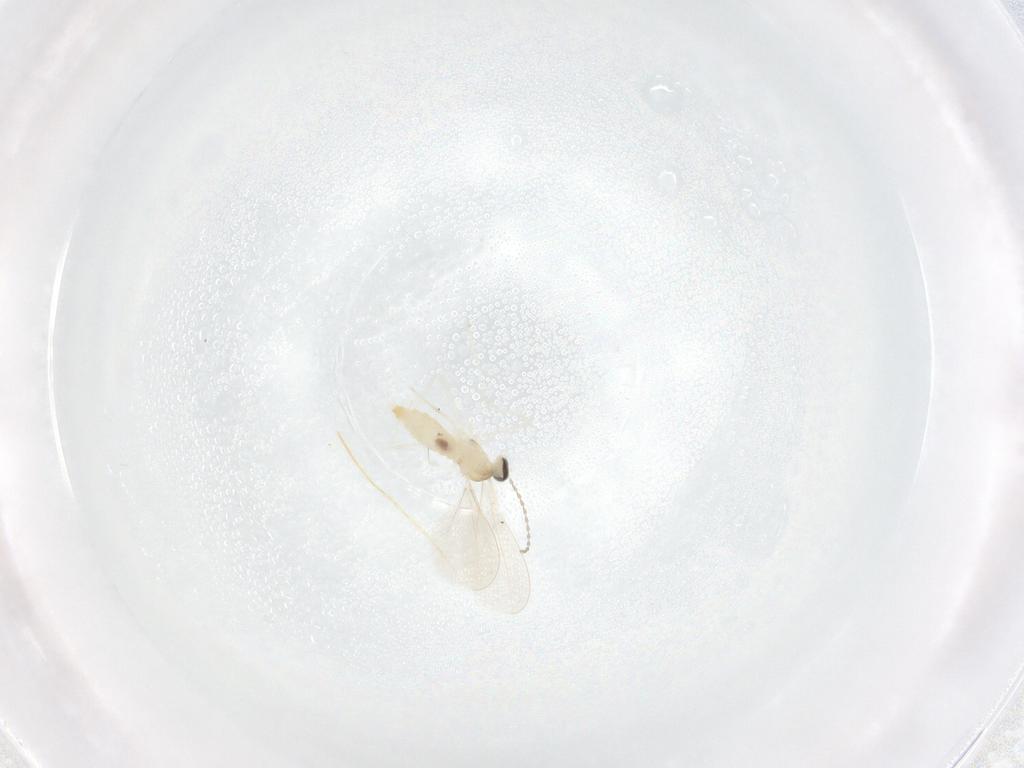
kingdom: Animalia
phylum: Arthropoda
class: Insecta
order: Diptera
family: Cecidomyiidae
